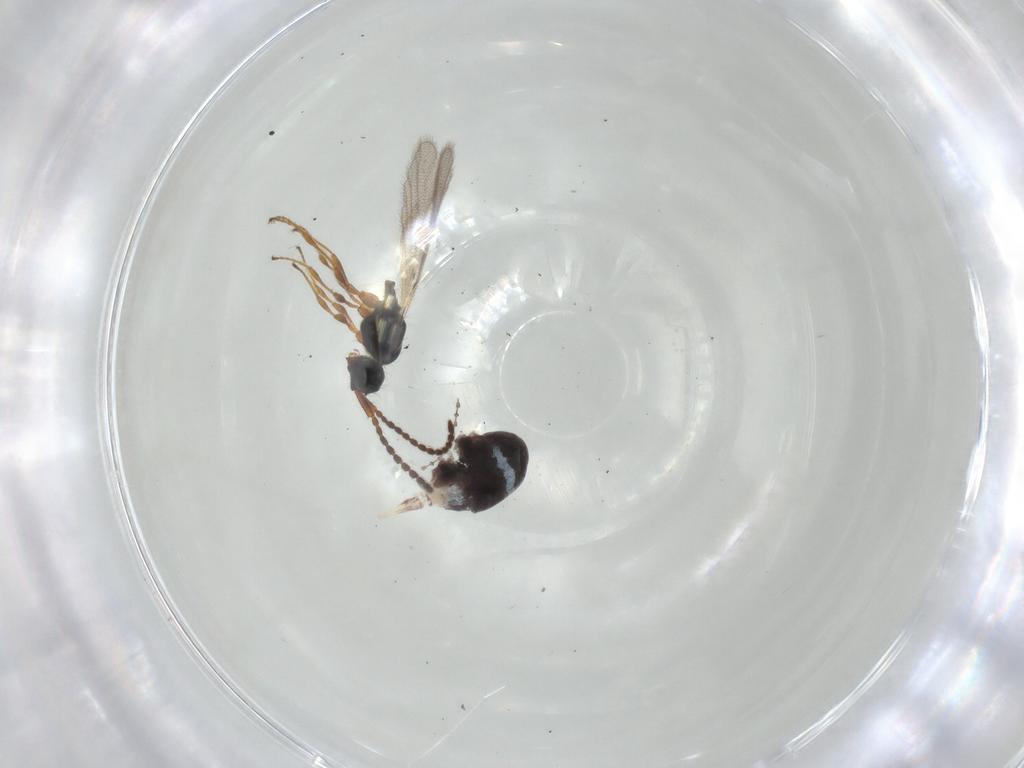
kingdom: Animalia
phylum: Arthropoda
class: Insecta
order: Hymenoptera
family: Diapriidae
